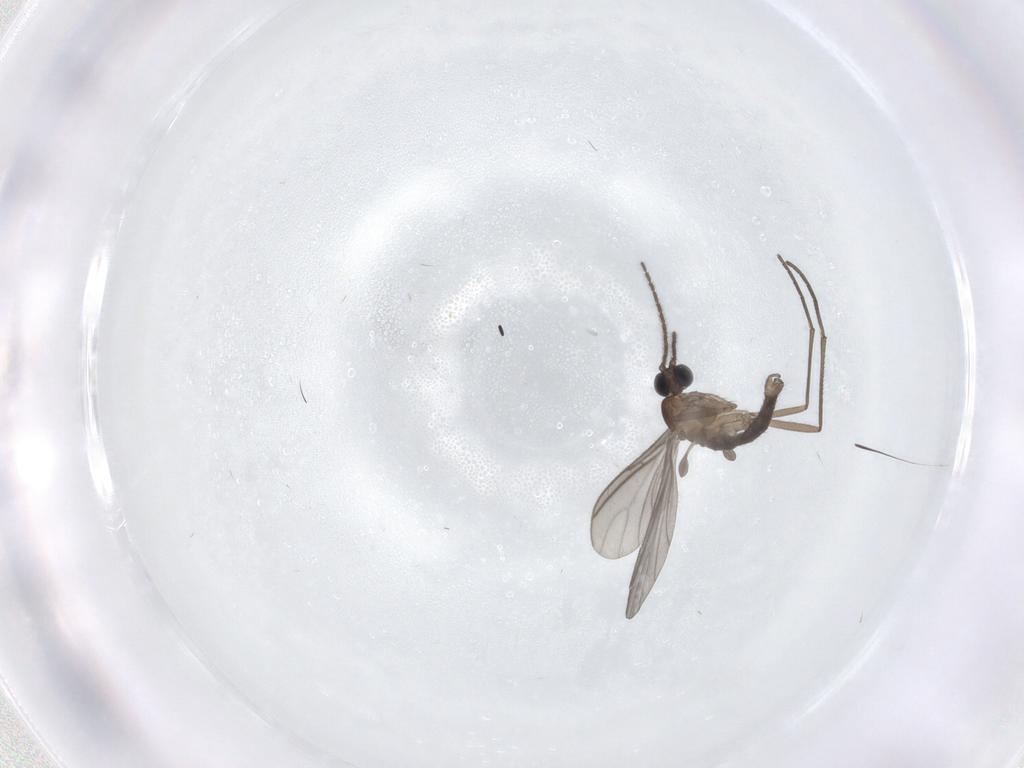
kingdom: Animalia
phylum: Arthropoda
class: Insecta
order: Diptera
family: Sciaridae
